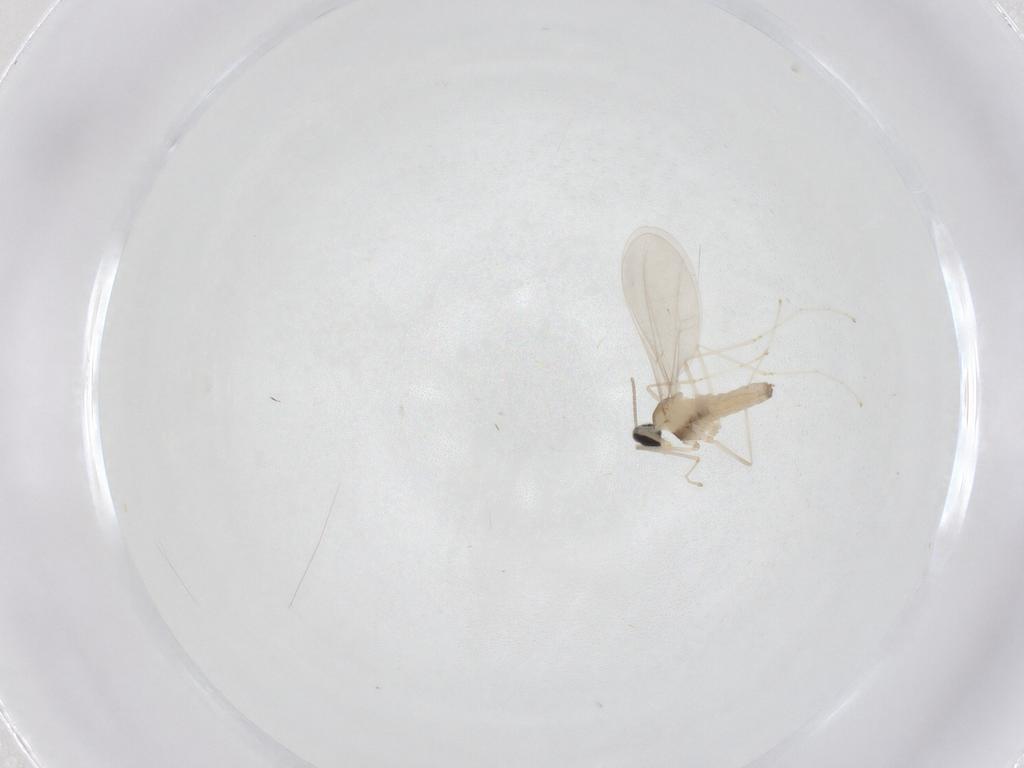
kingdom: Animalia
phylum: Arthropoda
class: Insecta
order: Diptera
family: Cecidomyiidae
